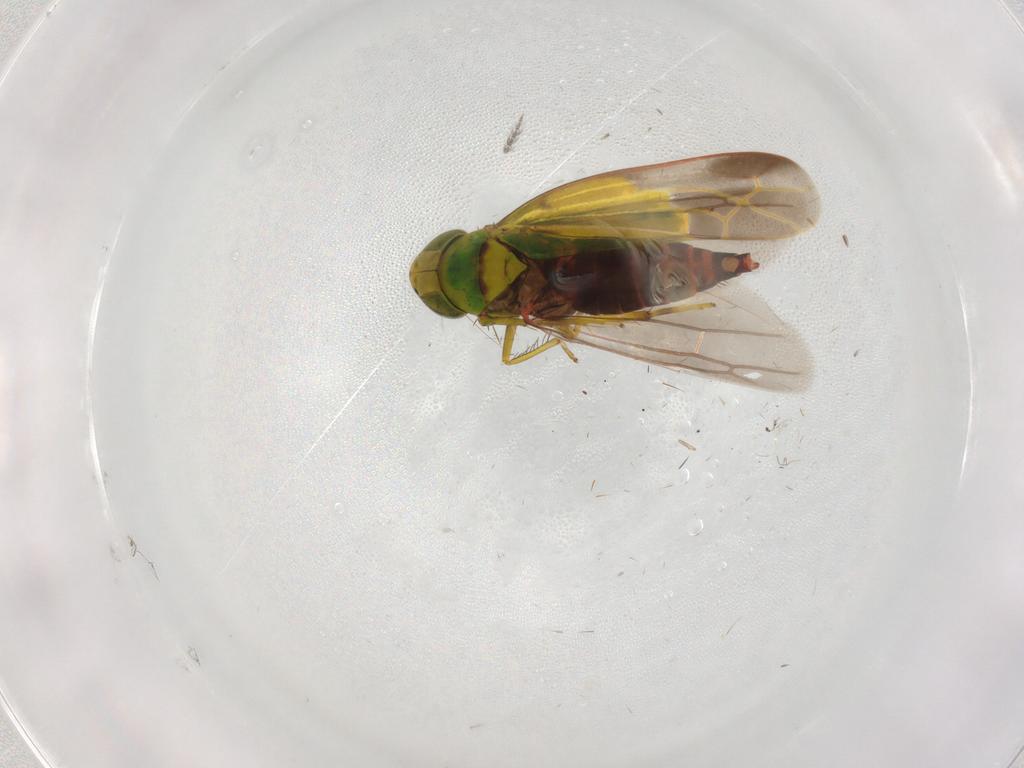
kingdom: Animalia
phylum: Arthropoda
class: Insecta
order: Hemiptera
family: Cicadellidae
